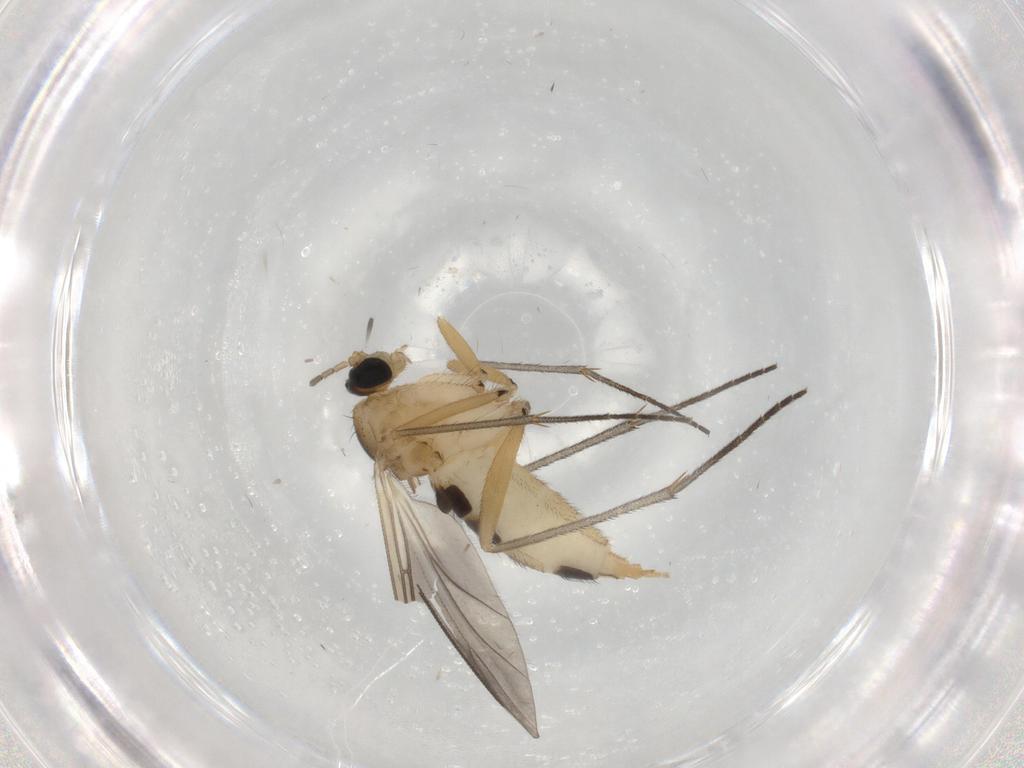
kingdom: Animalia
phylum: Arthropoda
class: Insecta
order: Diptera
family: Sciaridae
